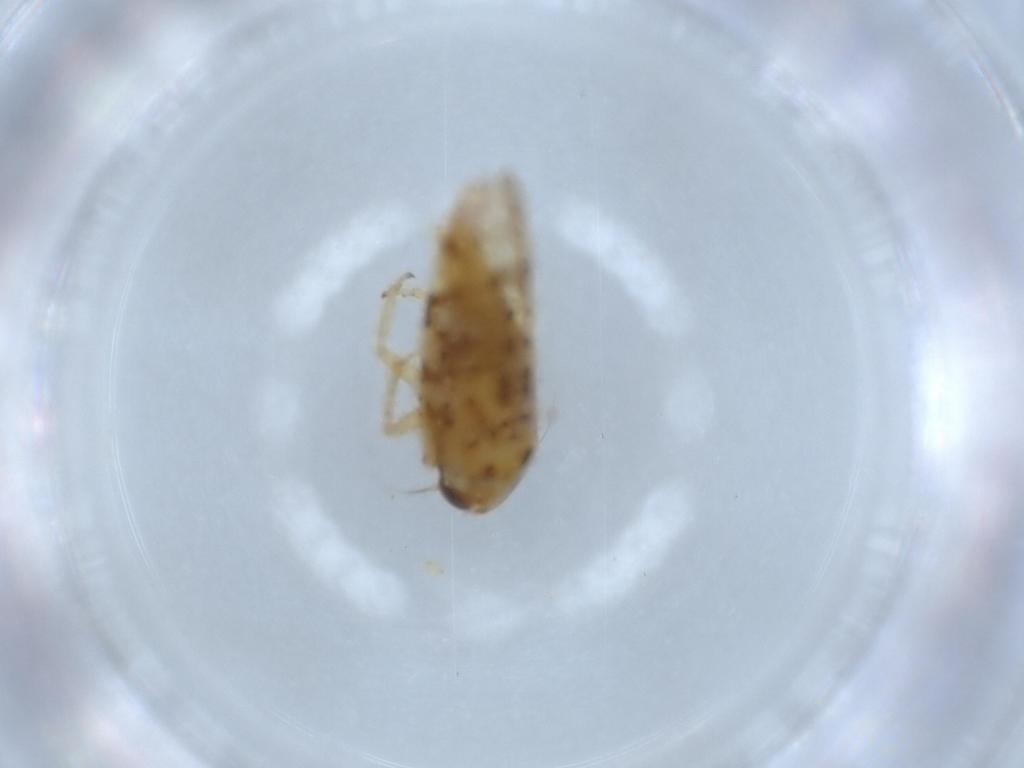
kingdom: Animalia
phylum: Arthropoda
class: Insecta
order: Hemiptera
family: Cicadellidae
